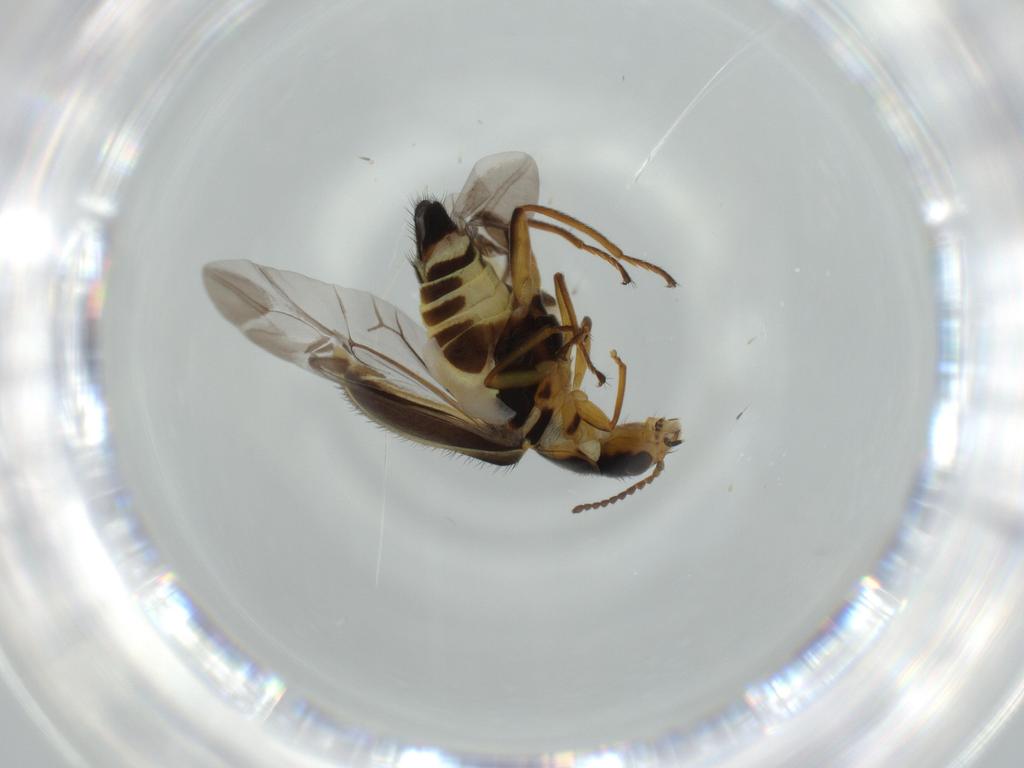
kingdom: Animalia
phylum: Arthropoda
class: Insecta
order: Coleoptera
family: Melyridae
